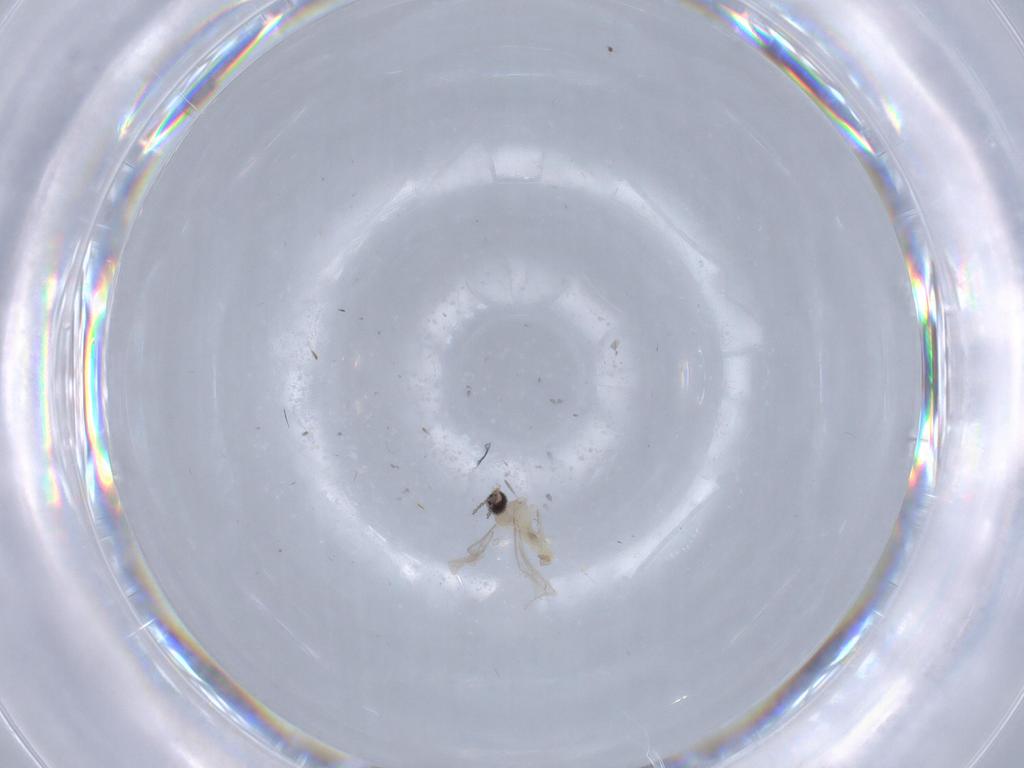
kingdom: Animalia
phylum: Arthropoda
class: Insecta
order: Diptera
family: Cecidomyiidae
